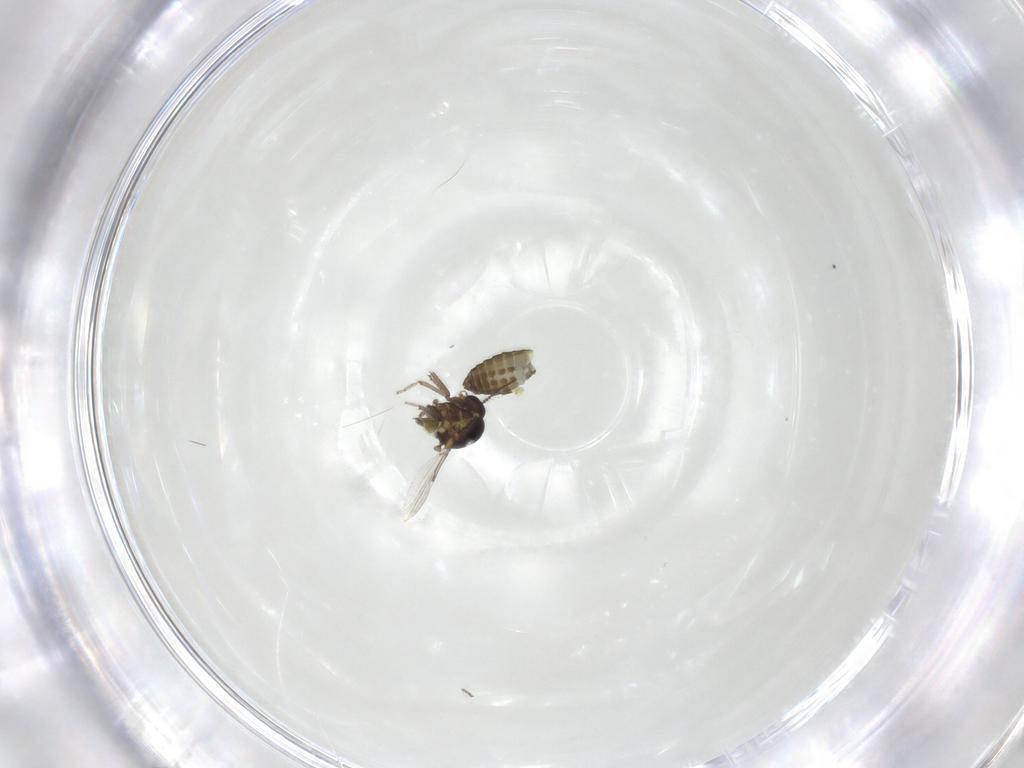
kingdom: Animalia
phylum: Arthropoda
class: Insecta
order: Diptera
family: Ceratopogonidae
